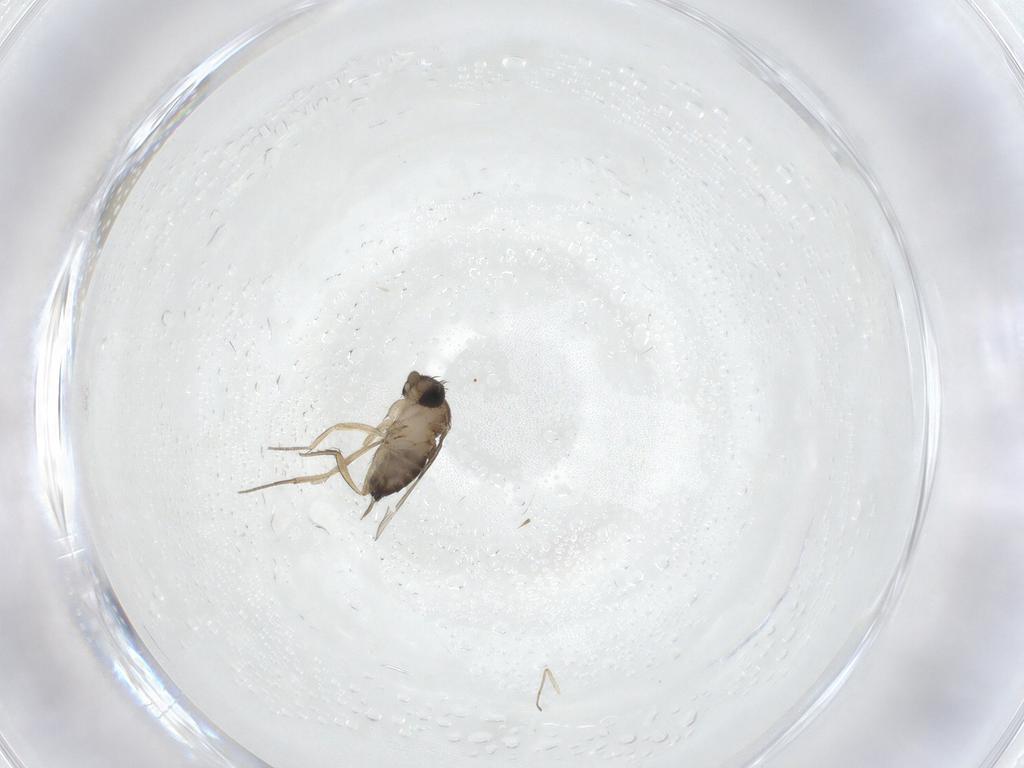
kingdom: Animalia
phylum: Arthropoda
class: Insecta
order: Diptera
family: Chironomidae
